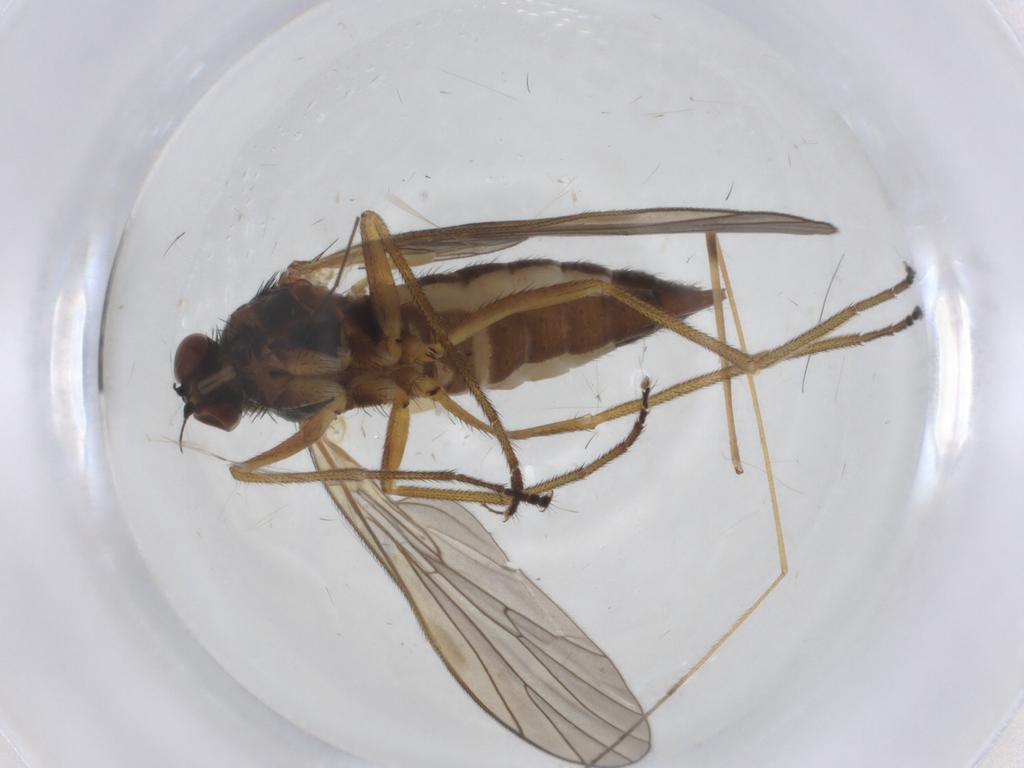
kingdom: Animalia
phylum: Arthropoda
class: Insecta
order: Diptera
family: Brachystomatidae
